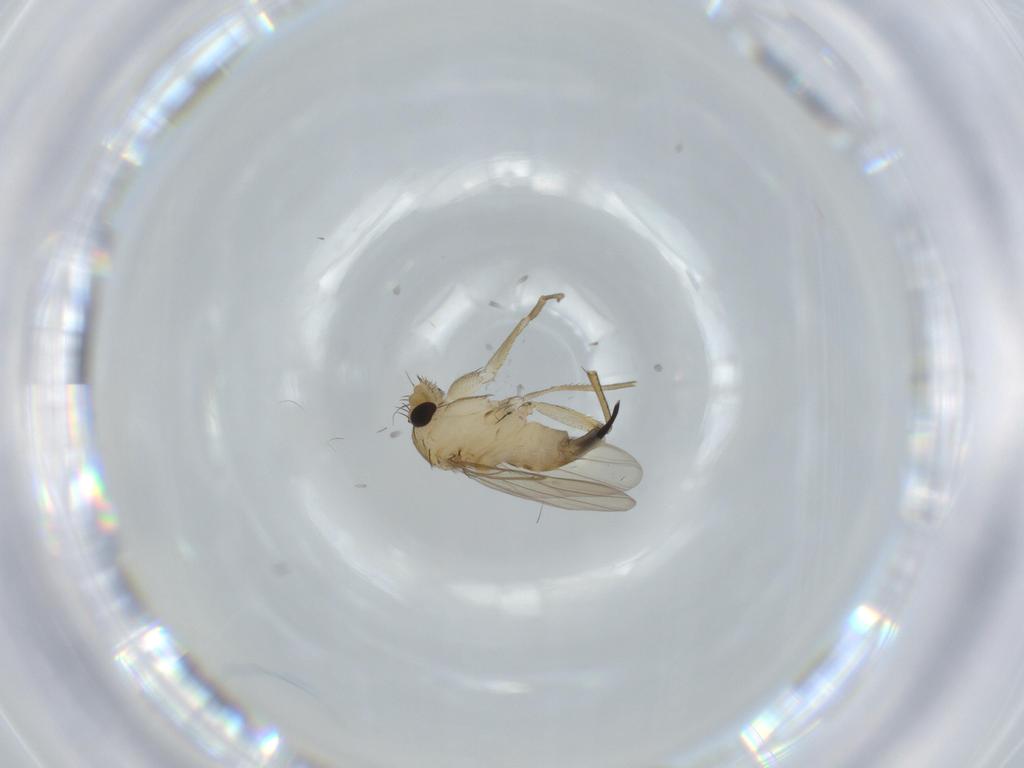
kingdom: Animalia
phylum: Arthropoda
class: Insecta
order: Diptera
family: Phoridae
